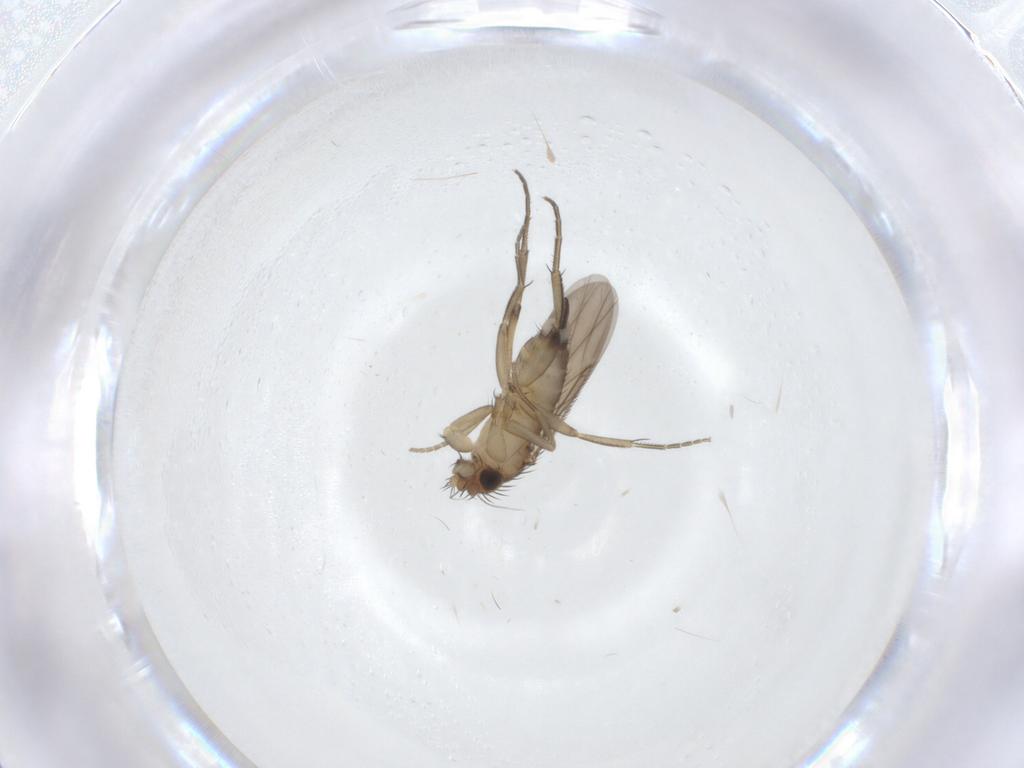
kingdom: Animalia
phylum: Arthropoda
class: Insecta
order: Diptera
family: Phoridae
